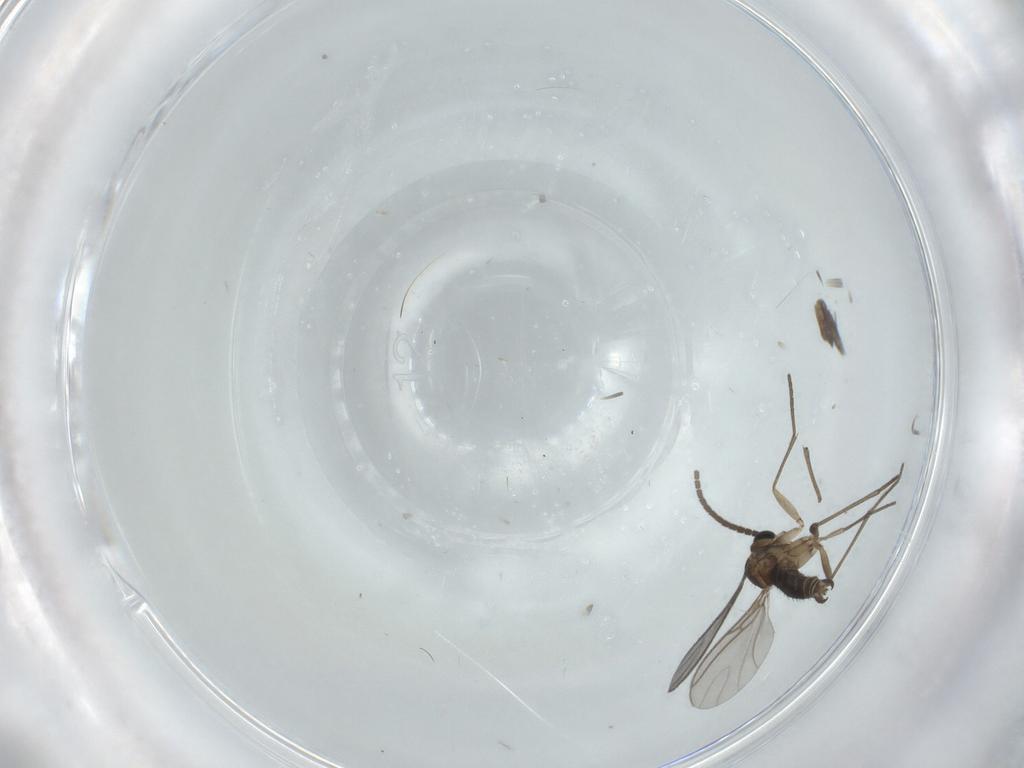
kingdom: Animalia
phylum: Arthropoda
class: Insecta
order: Diptera
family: Sciaridae
